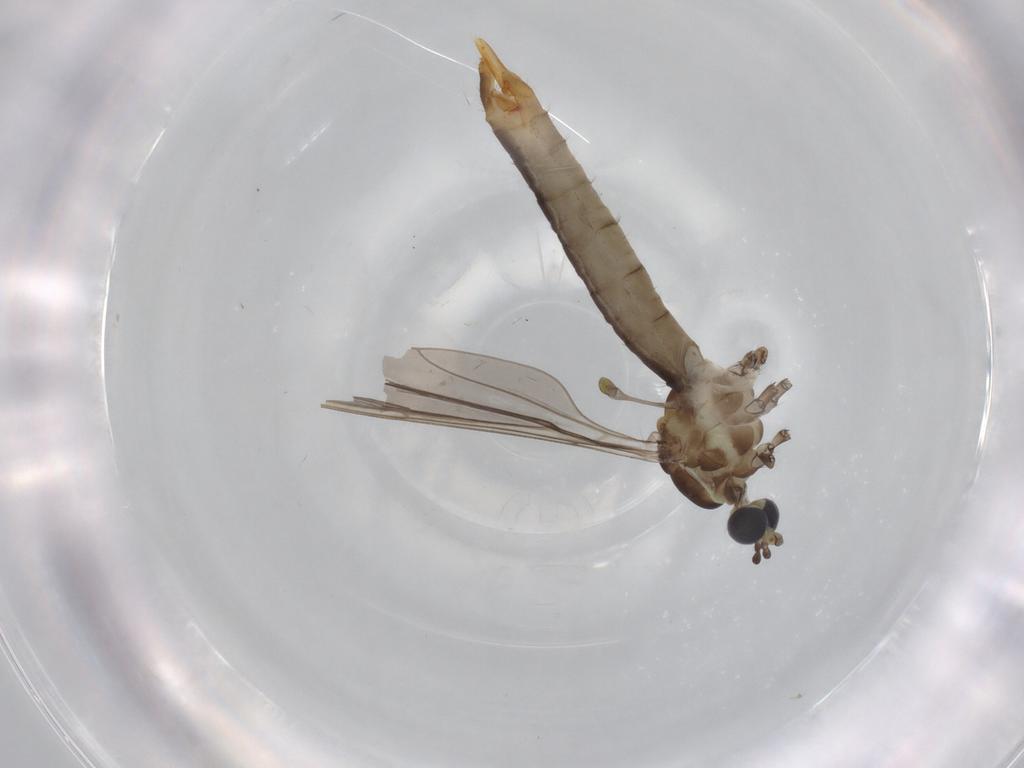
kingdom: Animalia
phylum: Arthropoda
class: Insecta
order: Diptera
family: Limoniidae
